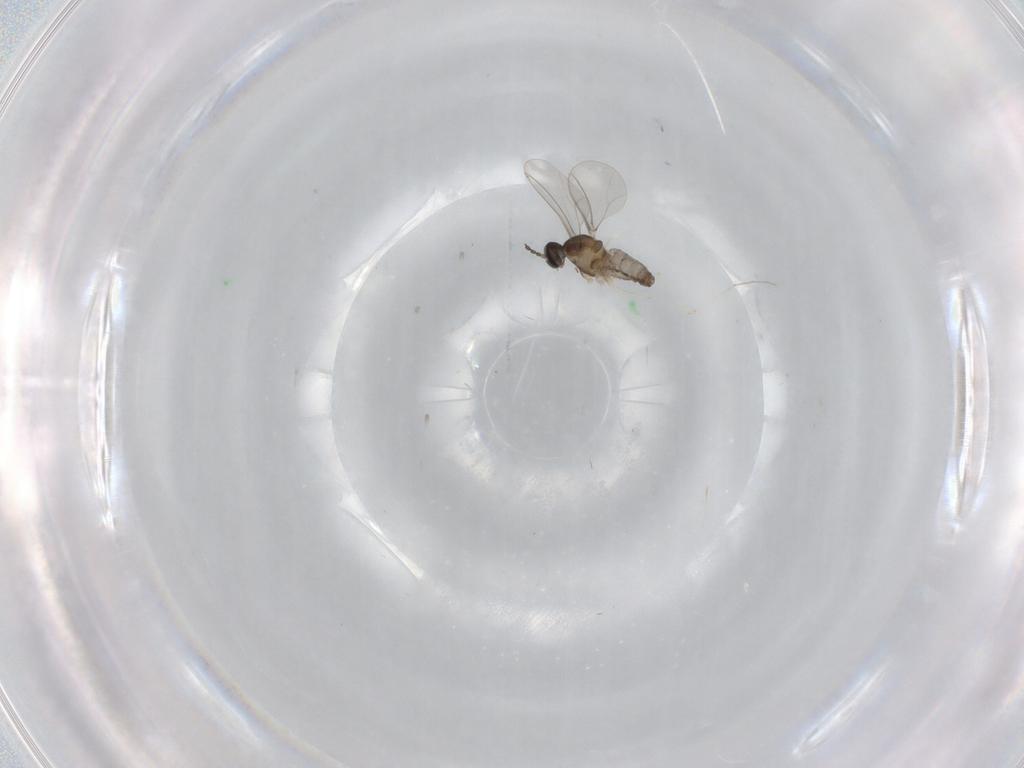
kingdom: Animalia
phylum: Arthropoda
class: Insecta
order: Diptera
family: Cecidomyiidae
